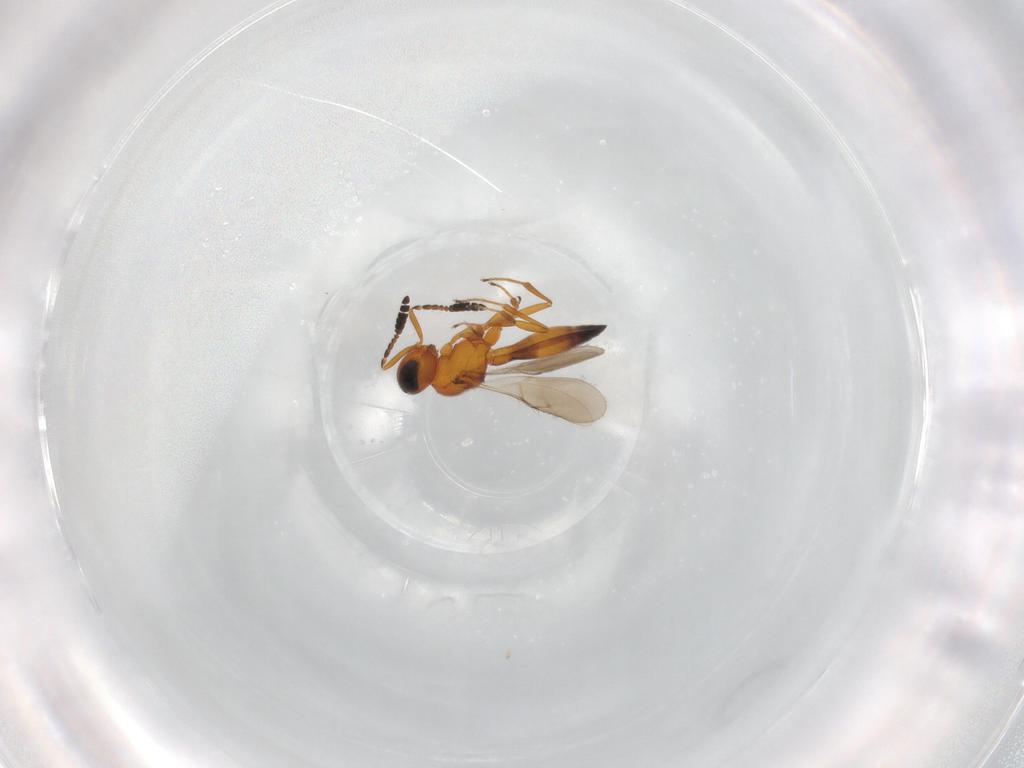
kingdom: Animalia
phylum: Arthropoda
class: Insecta
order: Hymenoptera
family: Scelionidae
